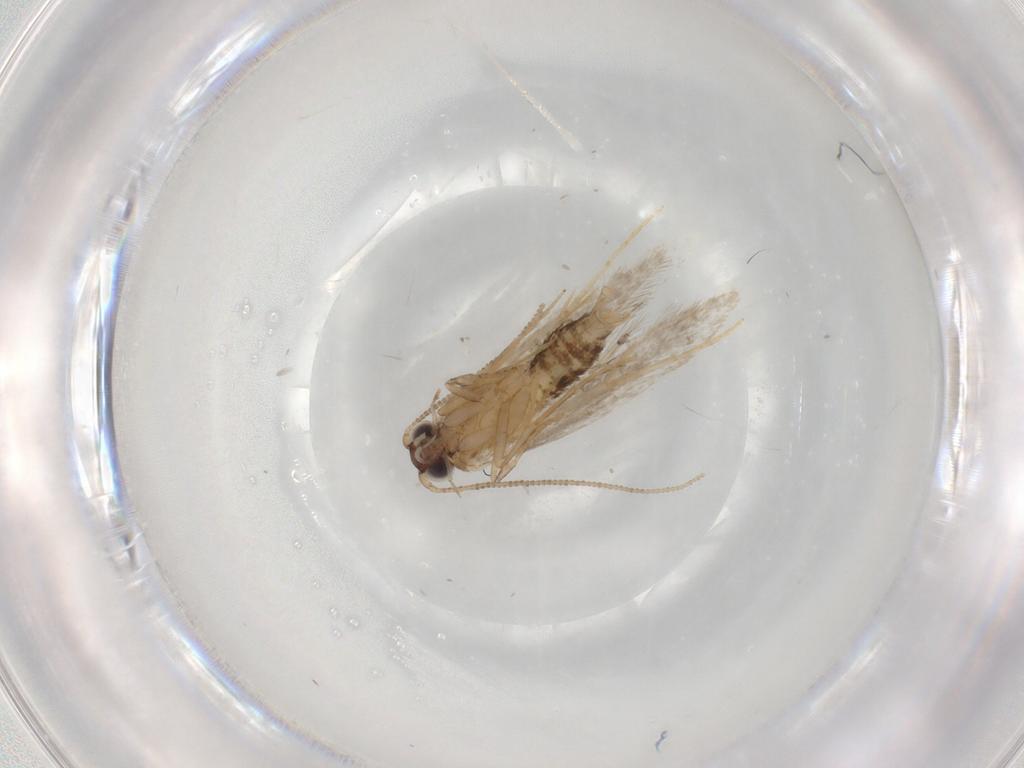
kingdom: Animalia
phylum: Arthropoda
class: Insecta
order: Lepidoptera
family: Tineidae
